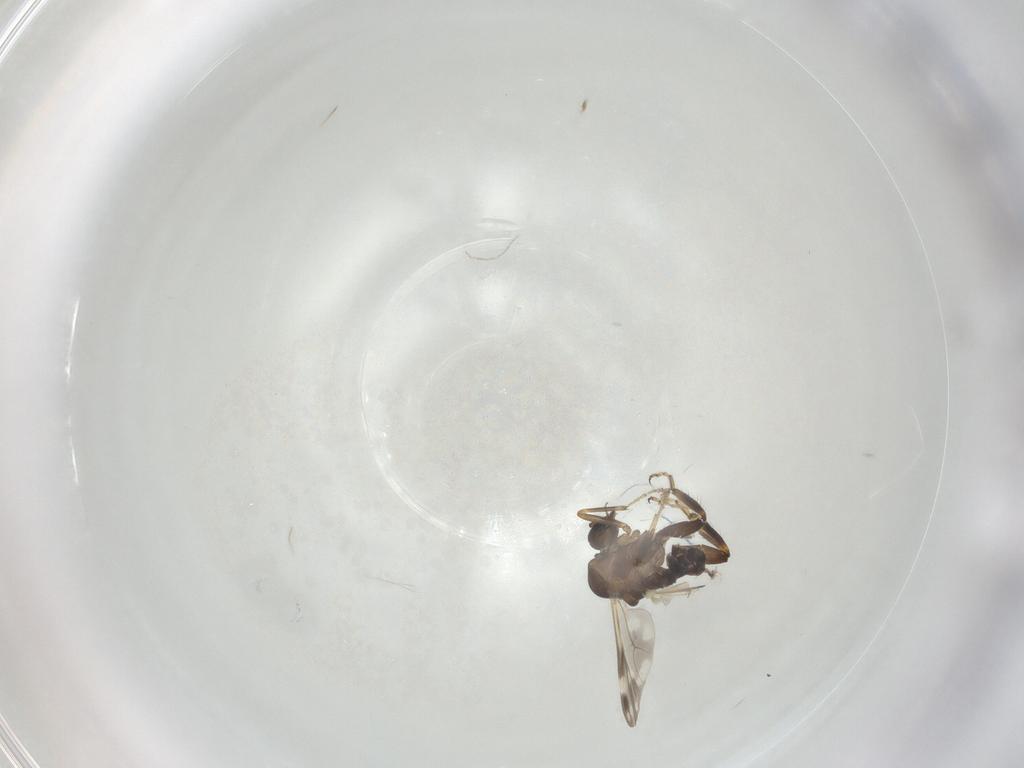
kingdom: Animalia
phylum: Arthropoda
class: Insecta
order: Diptera
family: Ceratopogonidae
